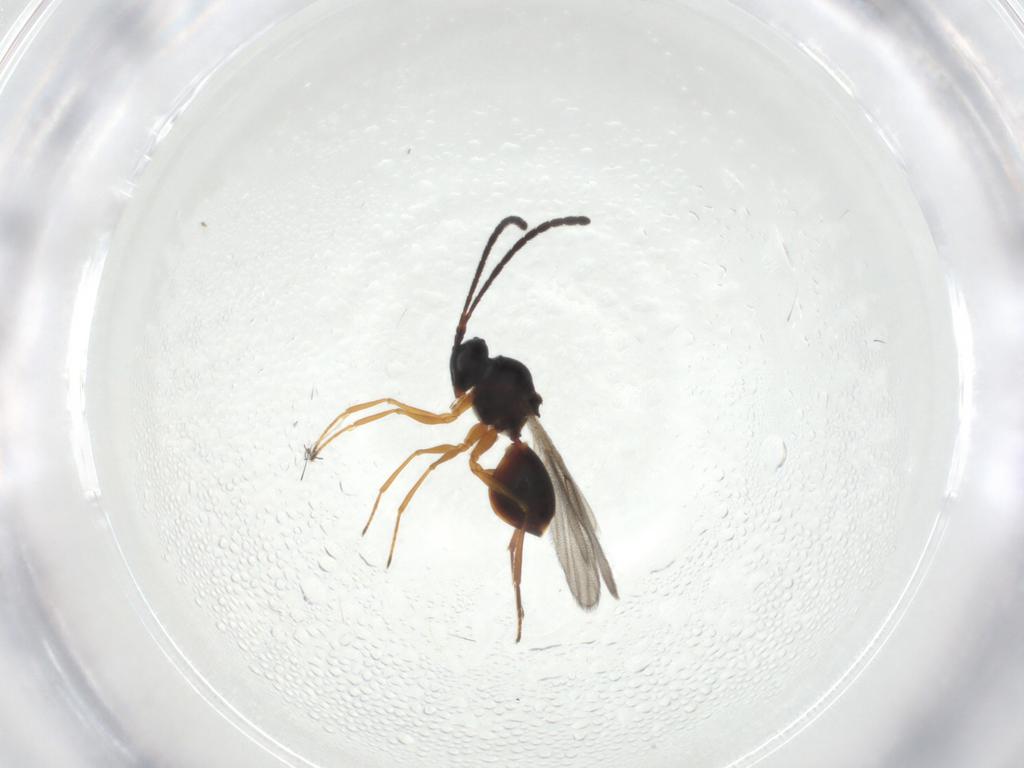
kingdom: Animalia
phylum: Arthropoda
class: Insecta
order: Hymenoptera
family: Figitidae
